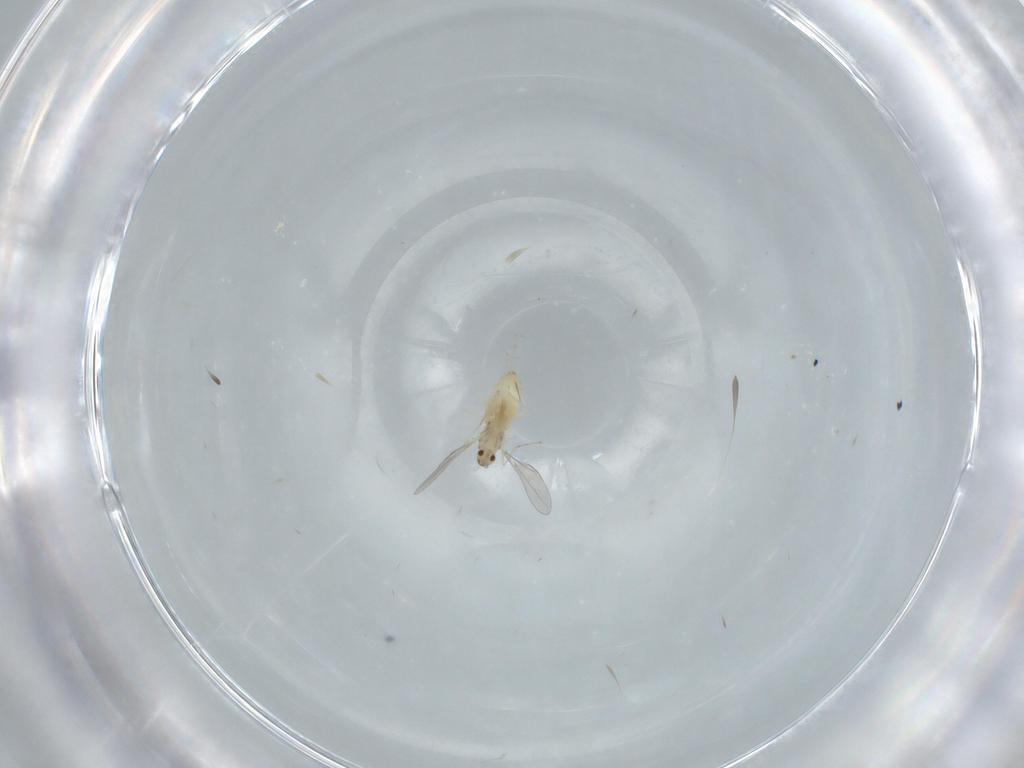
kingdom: Animalia
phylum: Arthropoda
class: Insecta
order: Diptera
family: Cecidomyiidae
